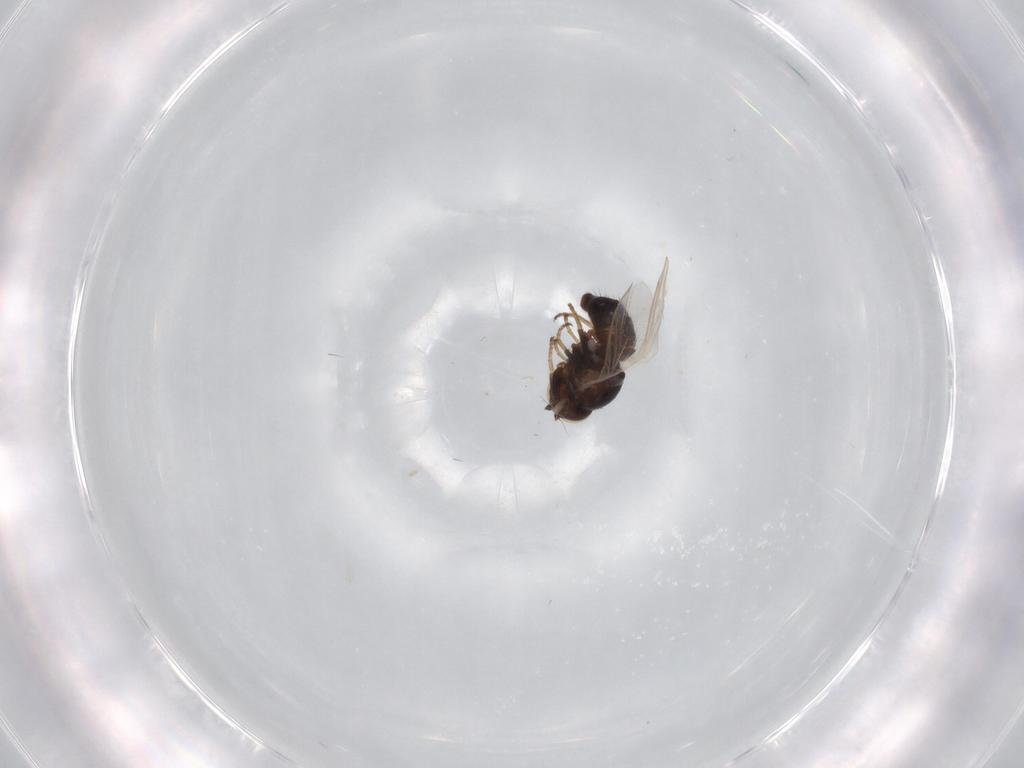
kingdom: Animalia
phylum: Arthropoda
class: Insecta
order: Diptera
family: Agromyzidae
